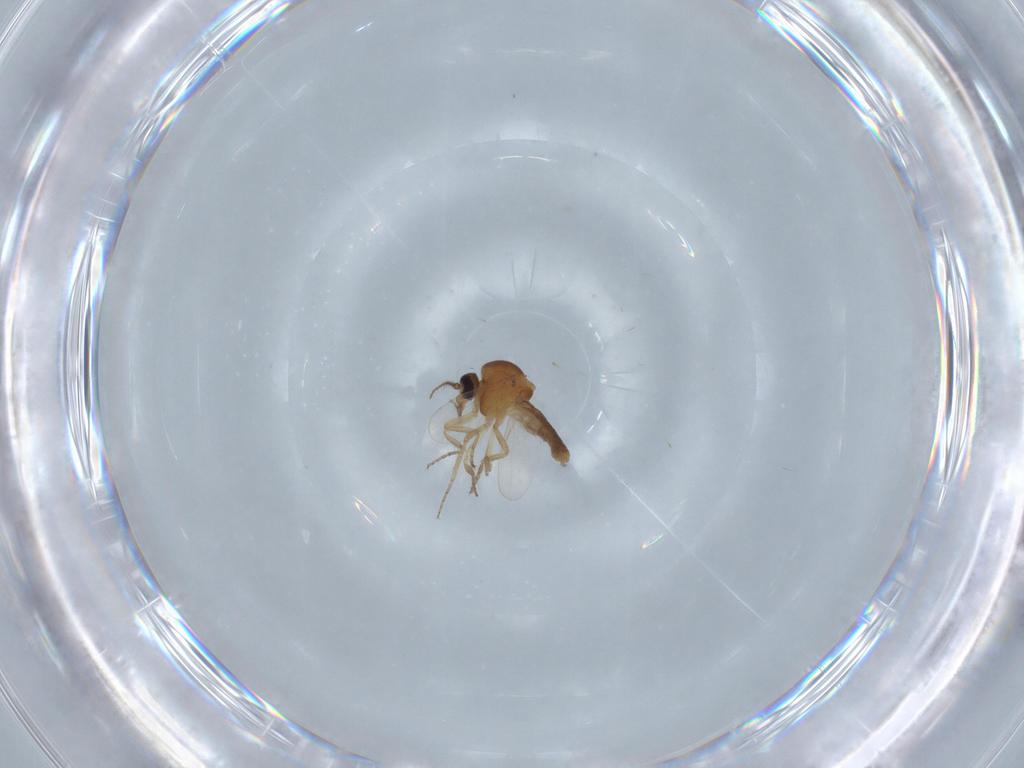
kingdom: Animalia
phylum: Arthropoda
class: Insecta
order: Diptera
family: Ceratopogonidae
